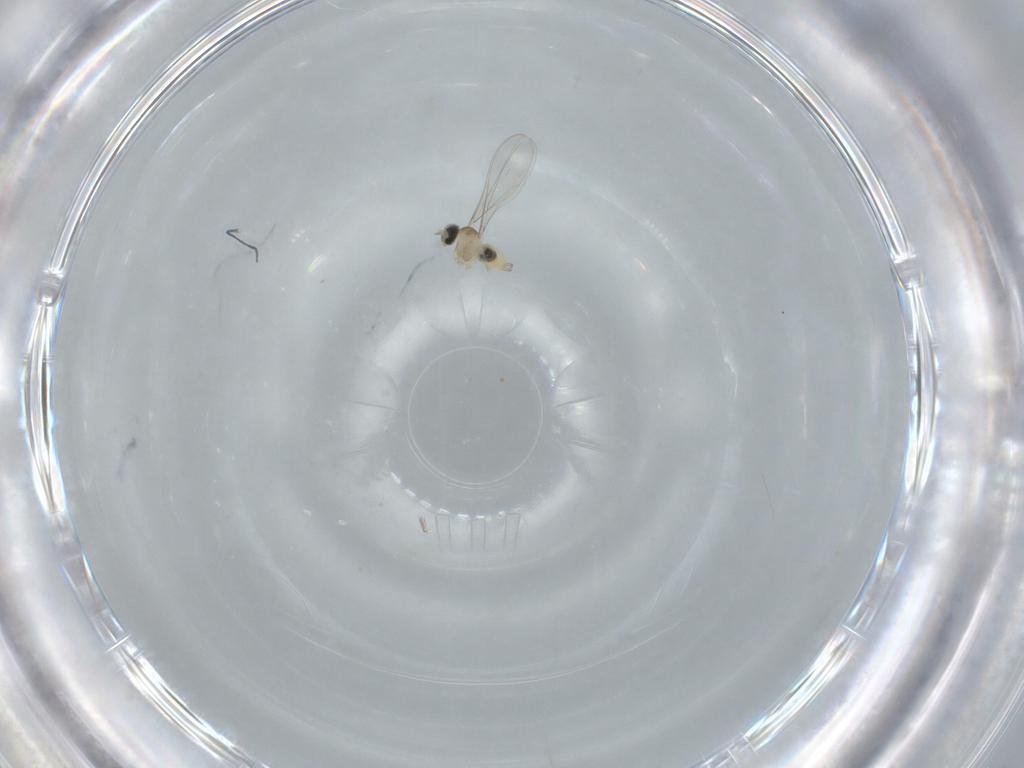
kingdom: Animalia
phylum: Arthropoda
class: Insecta
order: Diptera
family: Cecidomyiidae
